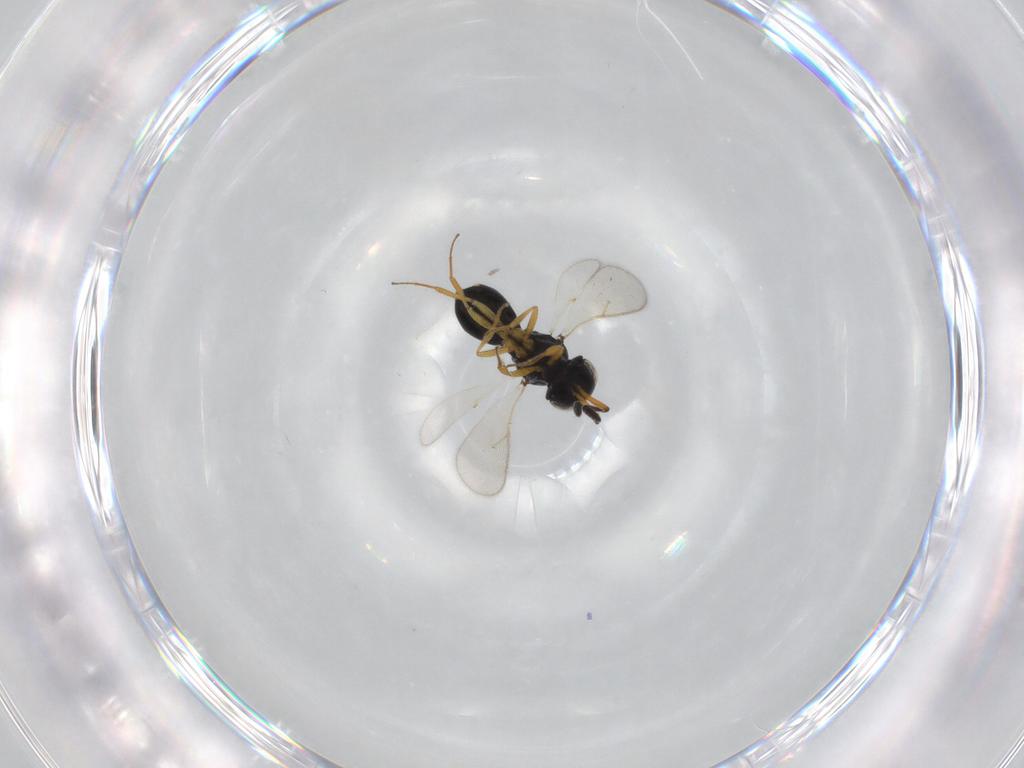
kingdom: Animalia
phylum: Arthropoda
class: Insecta
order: Hymenoptera
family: Scelionidae
